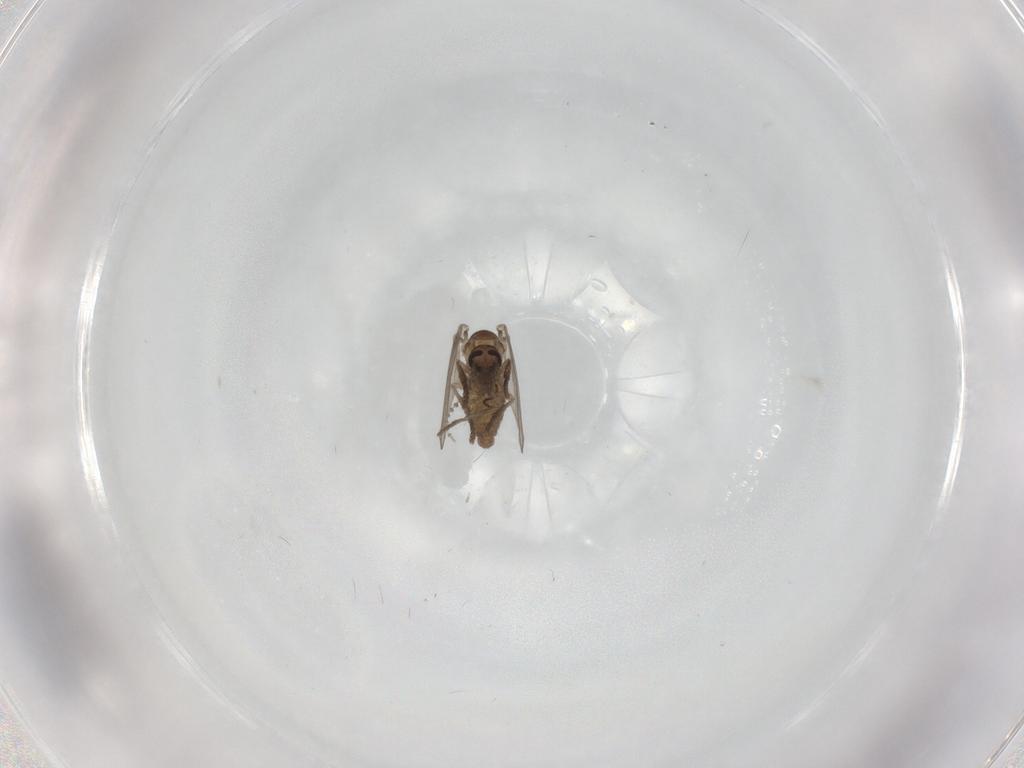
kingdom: Animalia
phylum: Arthropoda
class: Insecta
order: Diptera
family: Psychodidae
